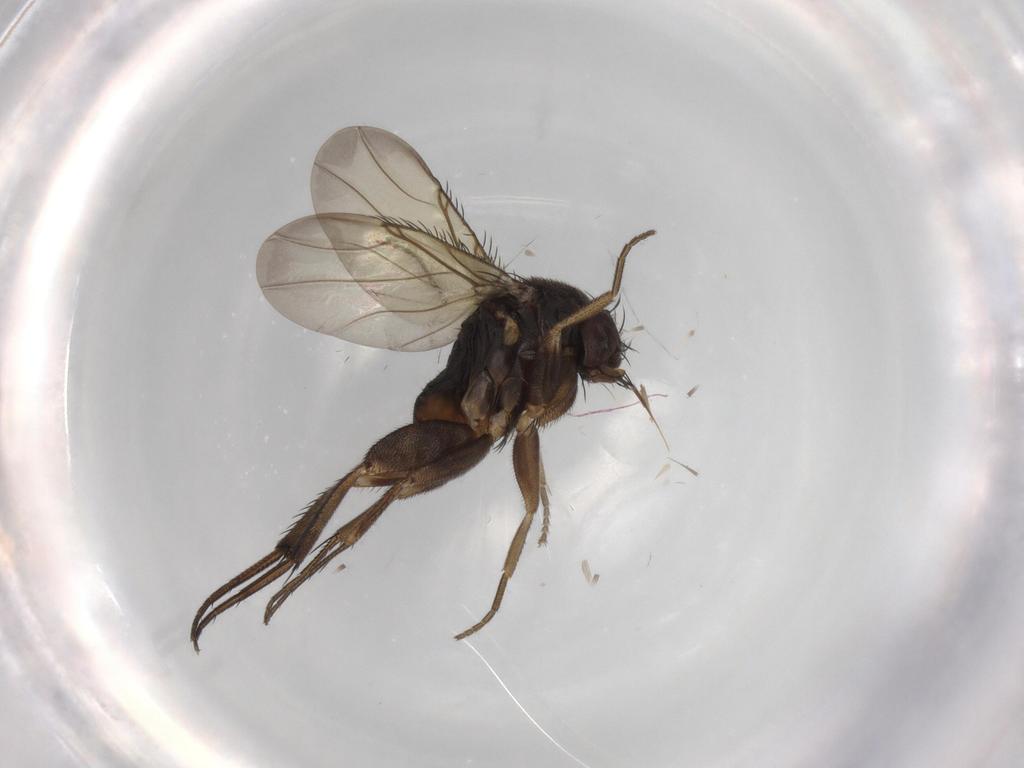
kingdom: Animalia
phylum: Arthropoda
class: Insecta
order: Diptera
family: Phoridae
